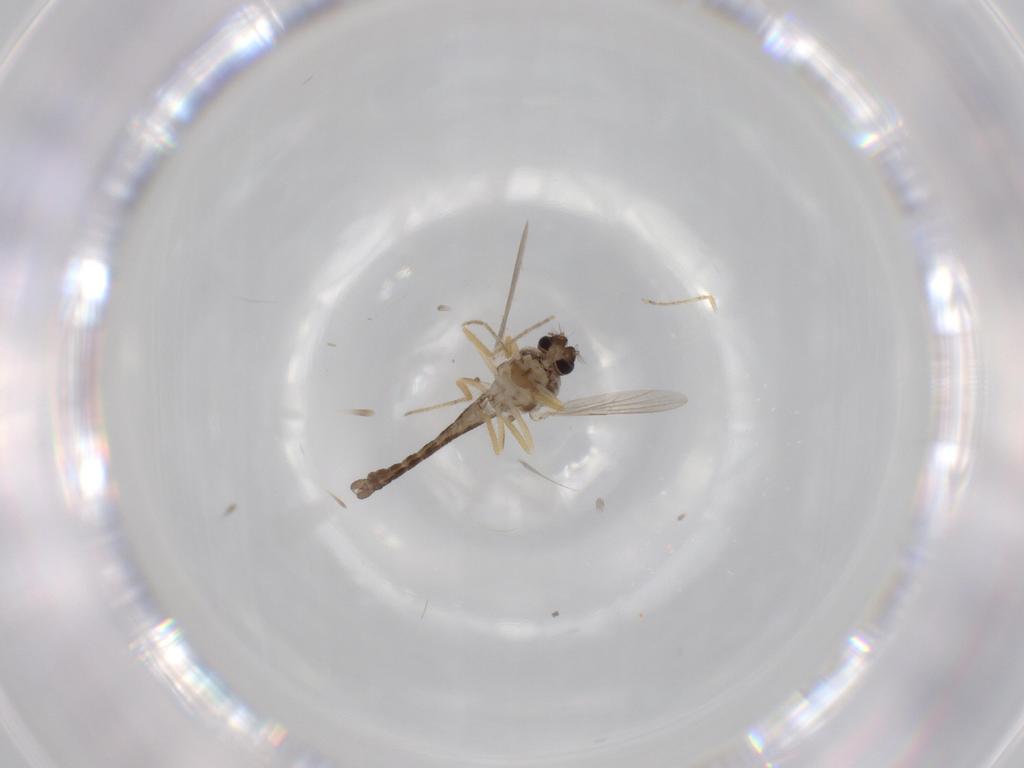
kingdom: Animalia
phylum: Arthropoda
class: Insecta
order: Diptera
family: Ceratopogonidae
